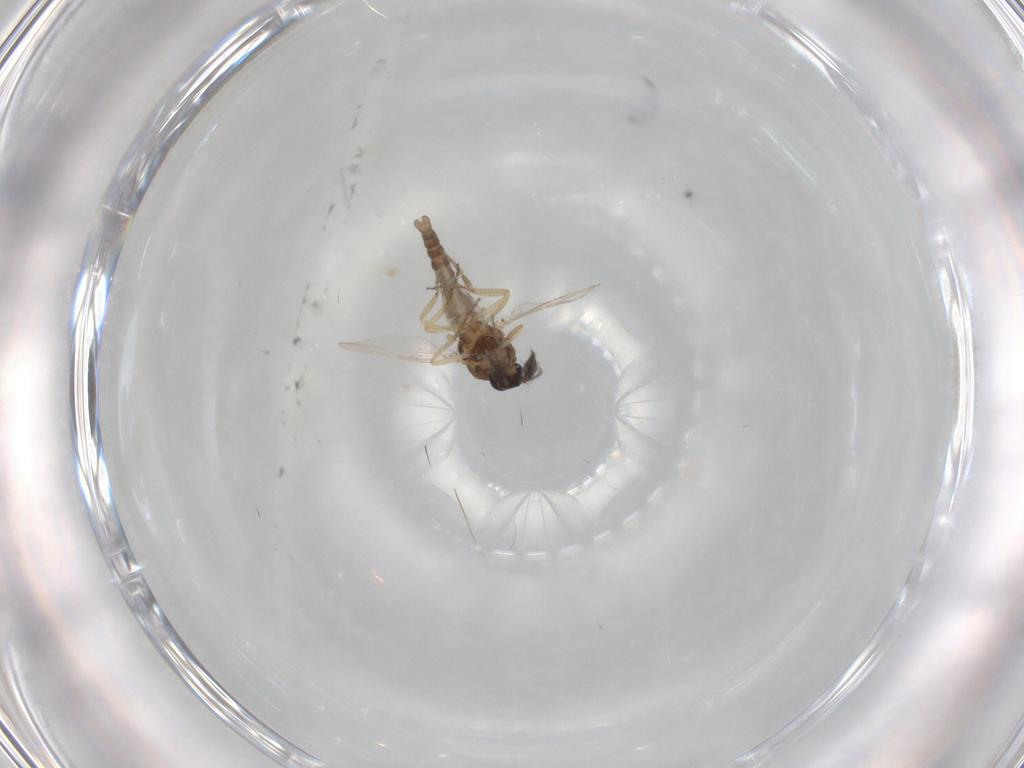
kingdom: Animalia
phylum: Arthropoda
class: Insecta
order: Diptera
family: Ceratopogonidae
